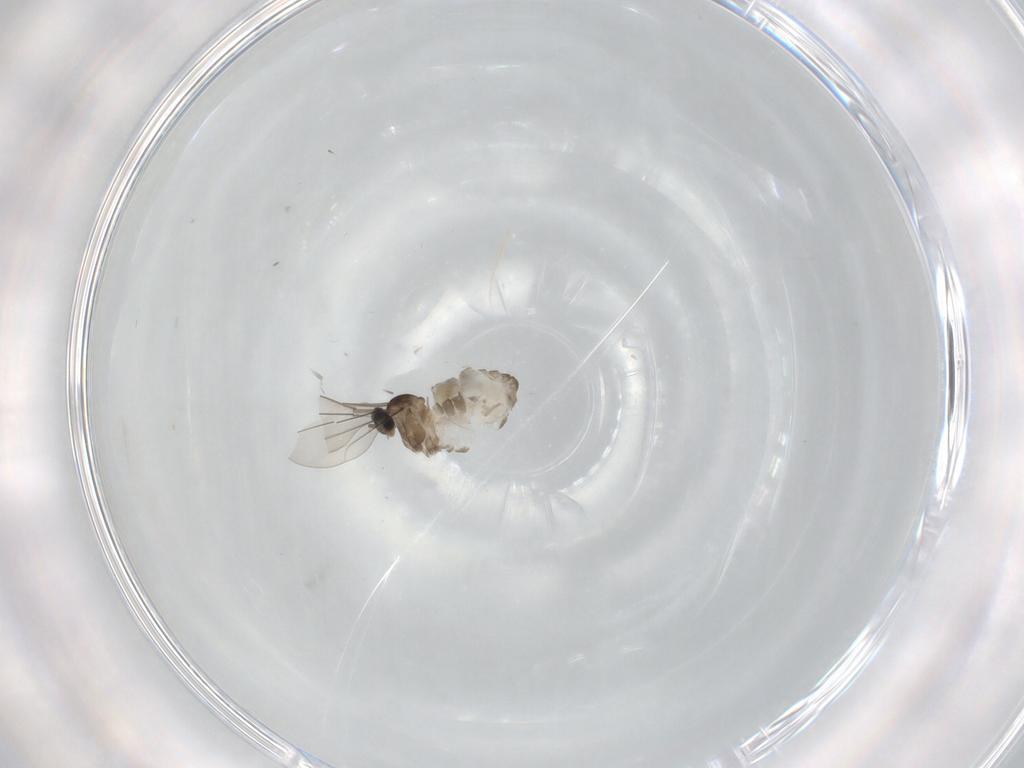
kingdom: Animalia
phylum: Arthropoda
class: Insecta
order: Diptera
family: Cecidomyiidae
